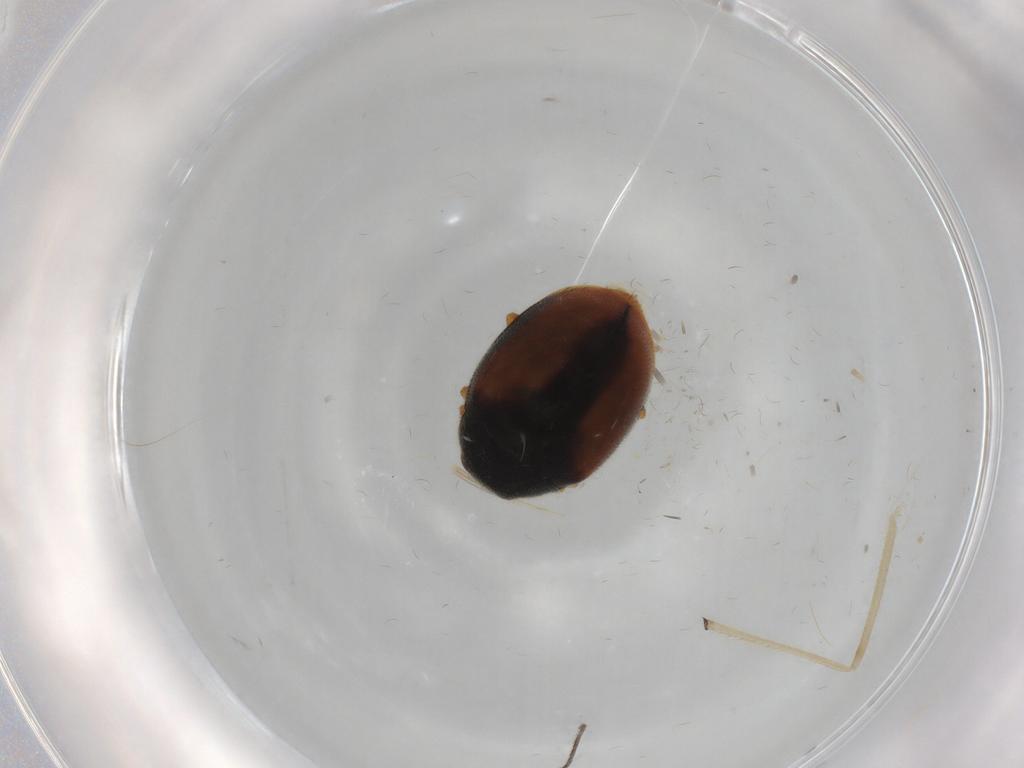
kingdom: Animalia
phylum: Arthropoda
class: Insecta
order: Coleoptera
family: Coccinellidae
